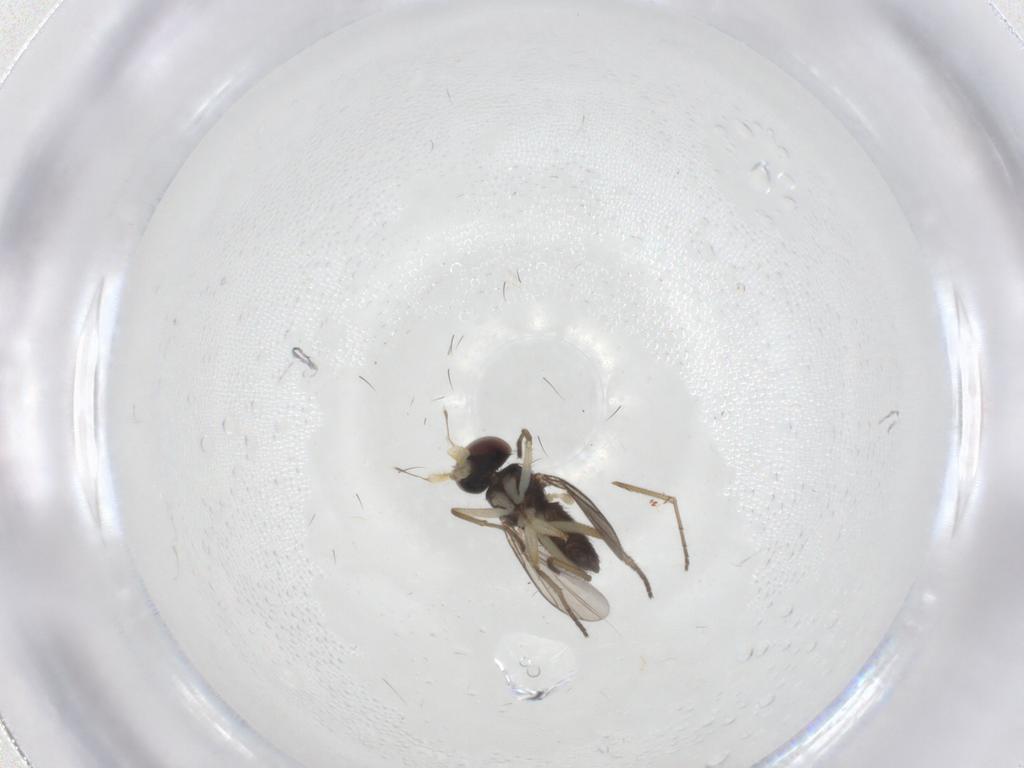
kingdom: Animalia
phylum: Arthropoda
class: Insecta
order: Diptera
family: Dolichopodidae
